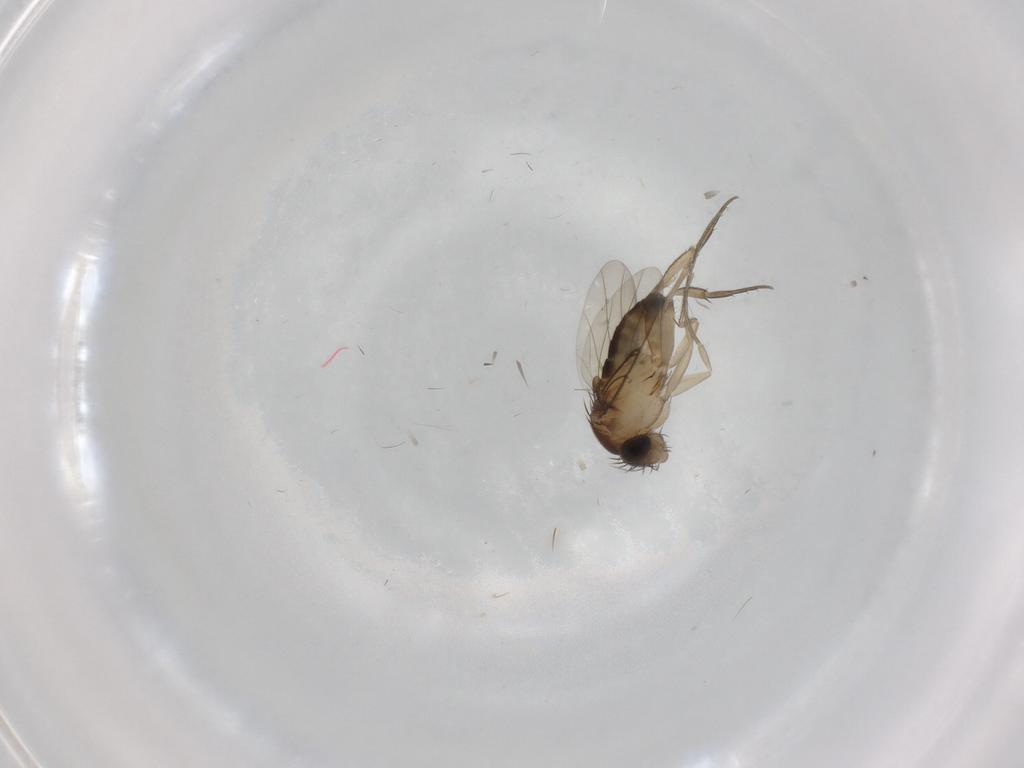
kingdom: Animalia
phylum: Arthropoda
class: Insecta
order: Diptera
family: Phoridae
